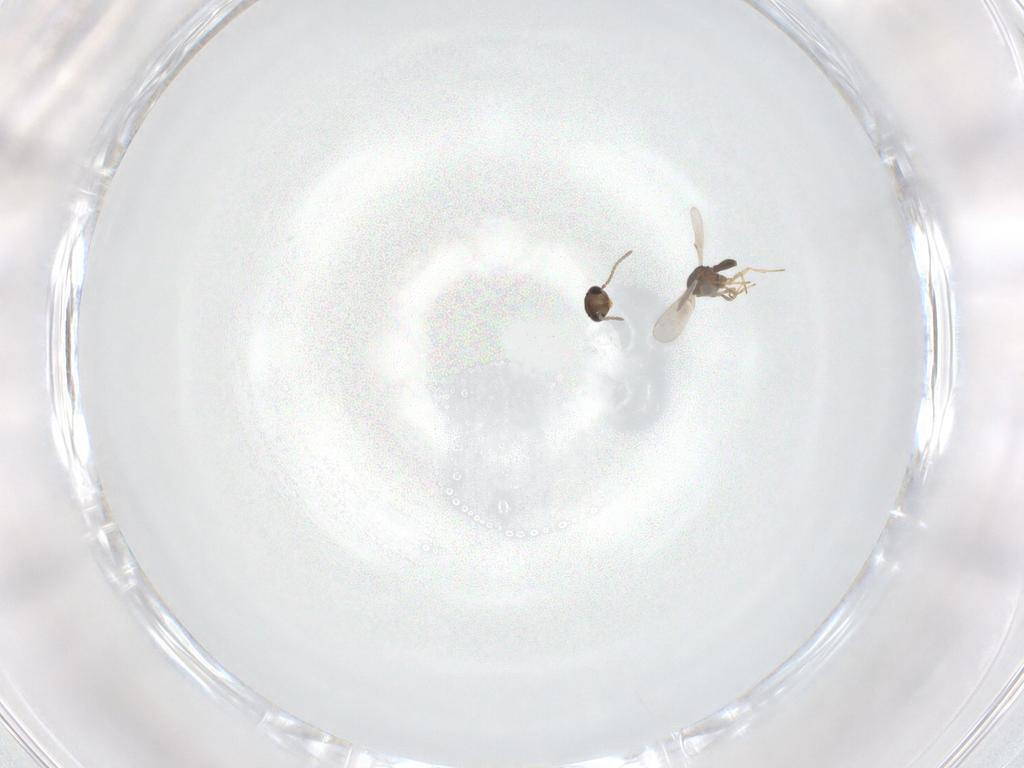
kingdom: Animalia
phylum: Arthropoda
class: Insecta
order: Hymenoptera
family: Scelionidae
